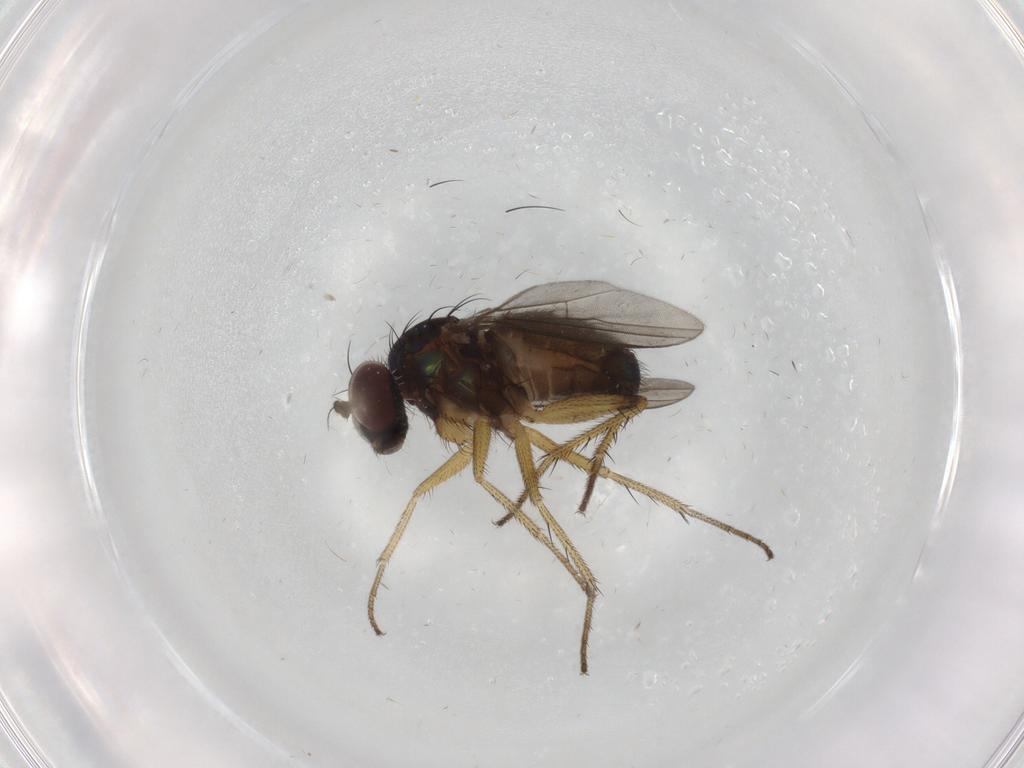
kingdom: Animalia
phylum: Arthropoda
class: Insecta
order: Diptera
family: Dolichopodidae
